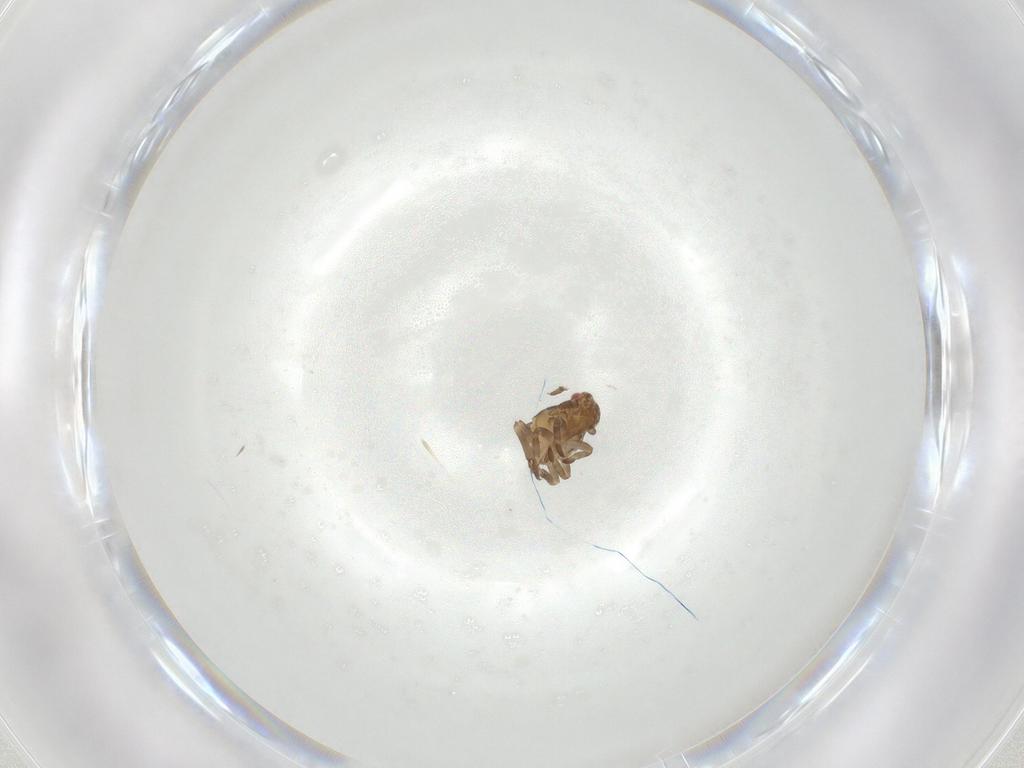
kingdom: Animalia
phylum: Arthropoda
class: Insecta
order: Hemiptera
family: Ricaniidae
